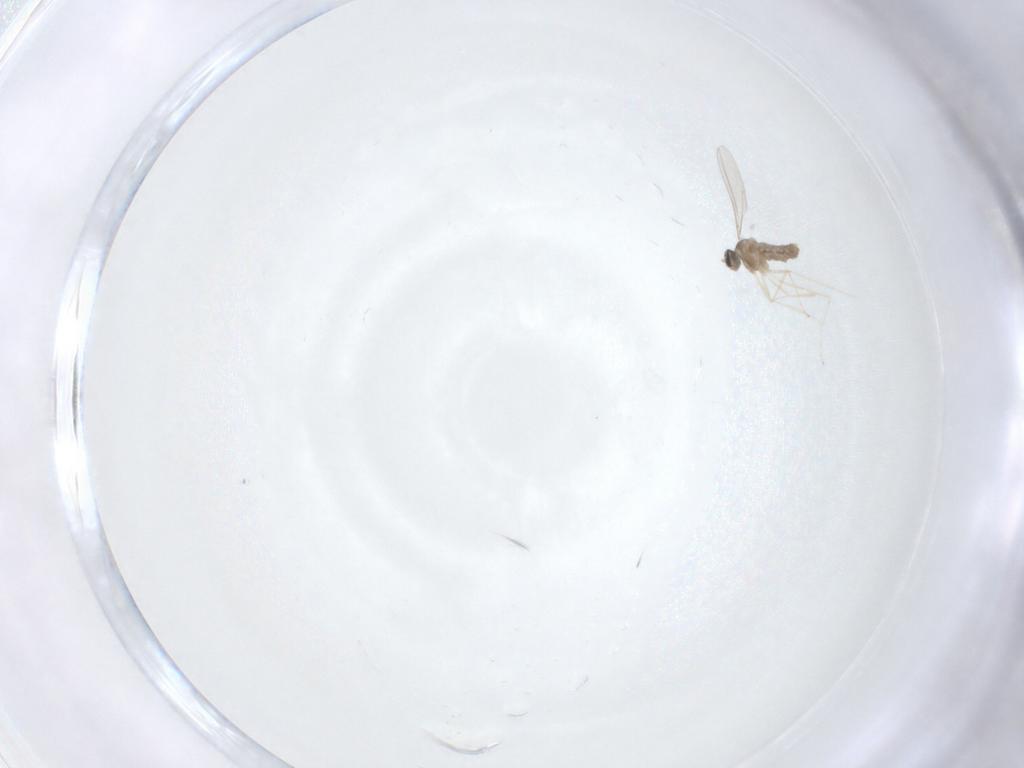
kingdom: Animalia
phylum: Arthropoda
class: Insecta
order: Diptera
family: Cecidomyiidae
